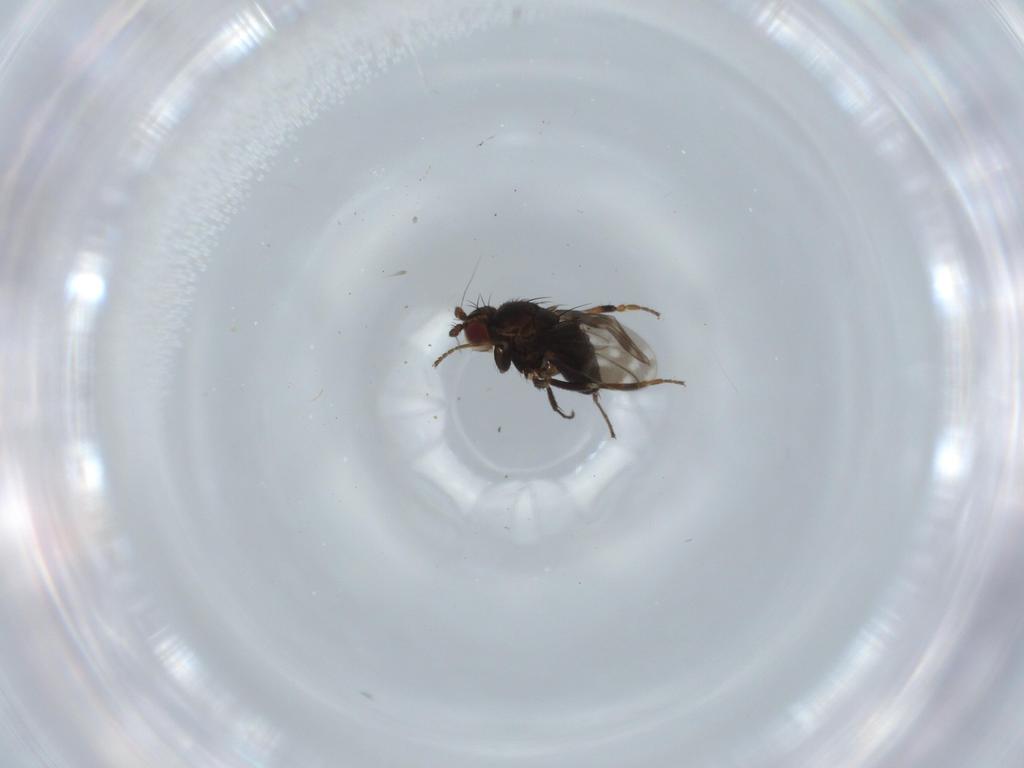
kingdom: Animalia
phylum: Arthropoda
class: Insecta
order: Diptera
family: Sphaeroceridae
